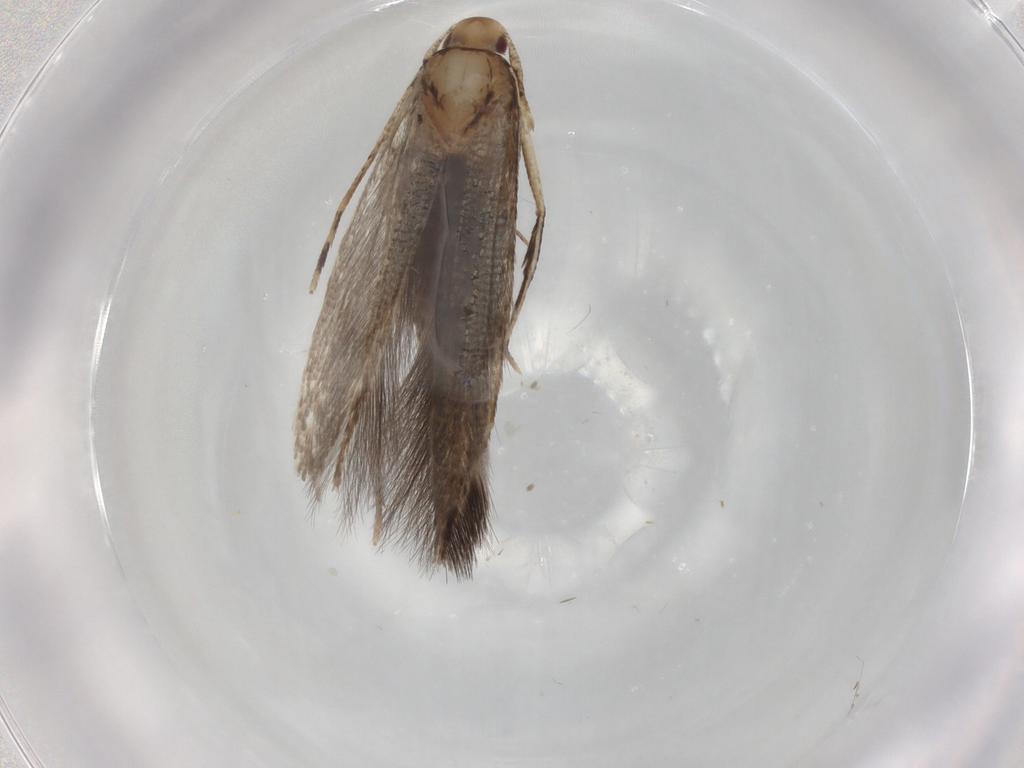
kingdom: Animalia
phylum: Arthropoda
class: Insecta
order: Lepidoptera
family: Cosmopterigidae
